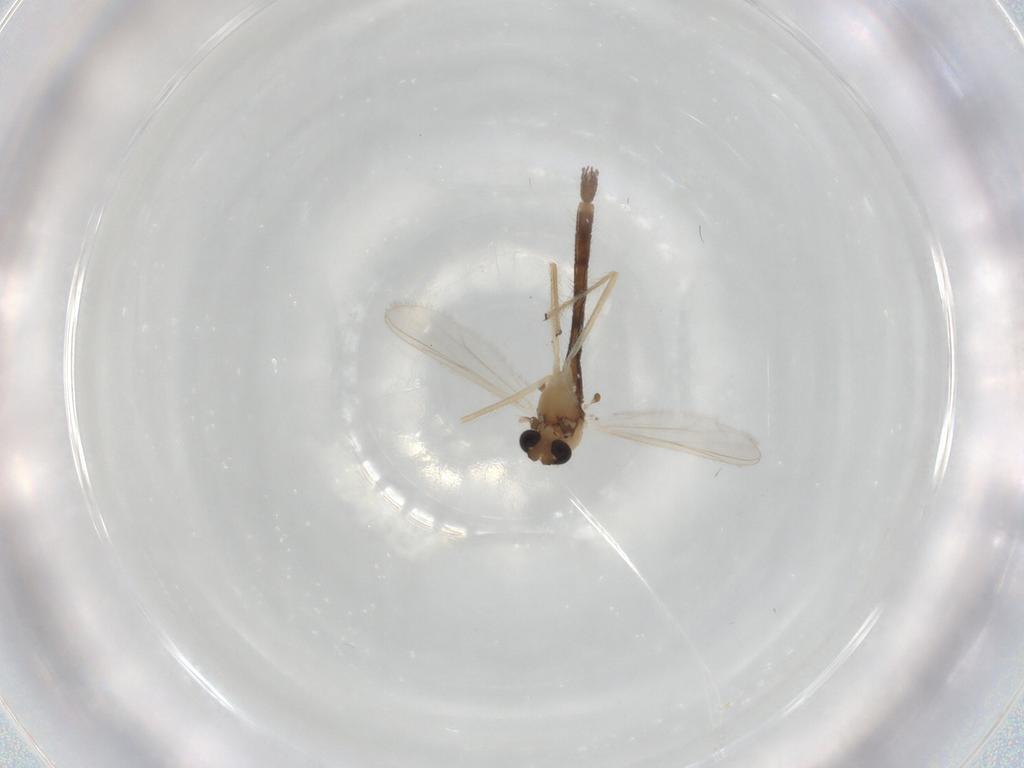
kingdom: Animalia
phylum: Arthropoda
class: Insecta
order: Diptera
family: Chironomidae
